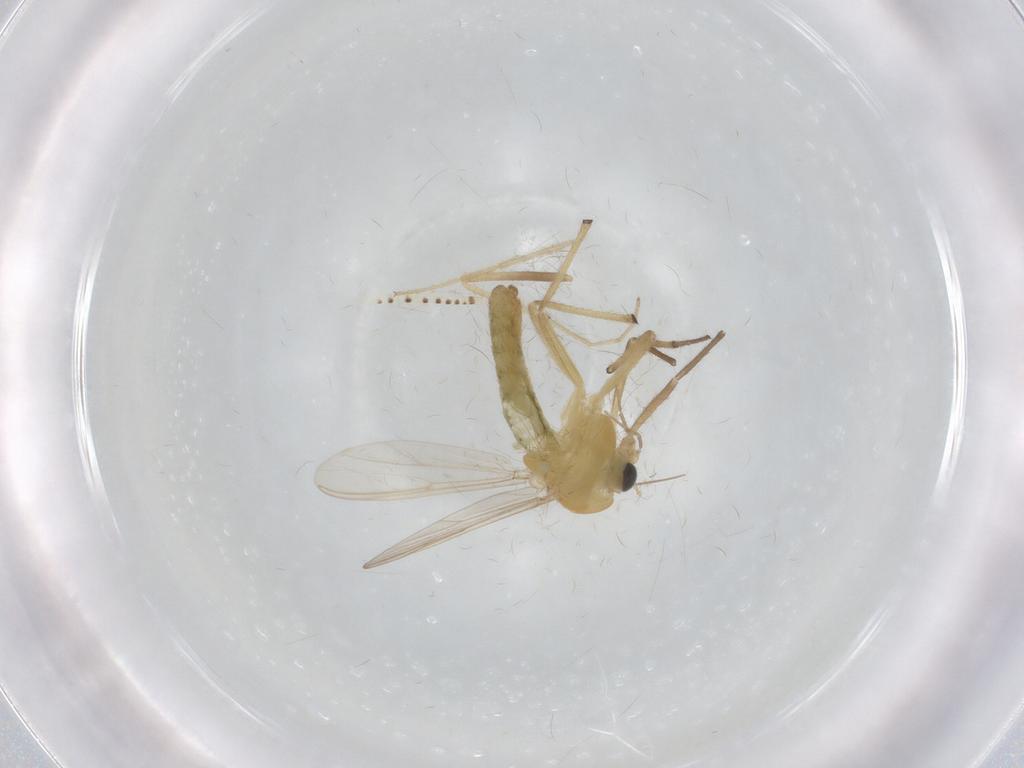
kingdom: Animalia
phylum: Arthropoda
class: Insecta
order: Diptera
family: Chironomidae
